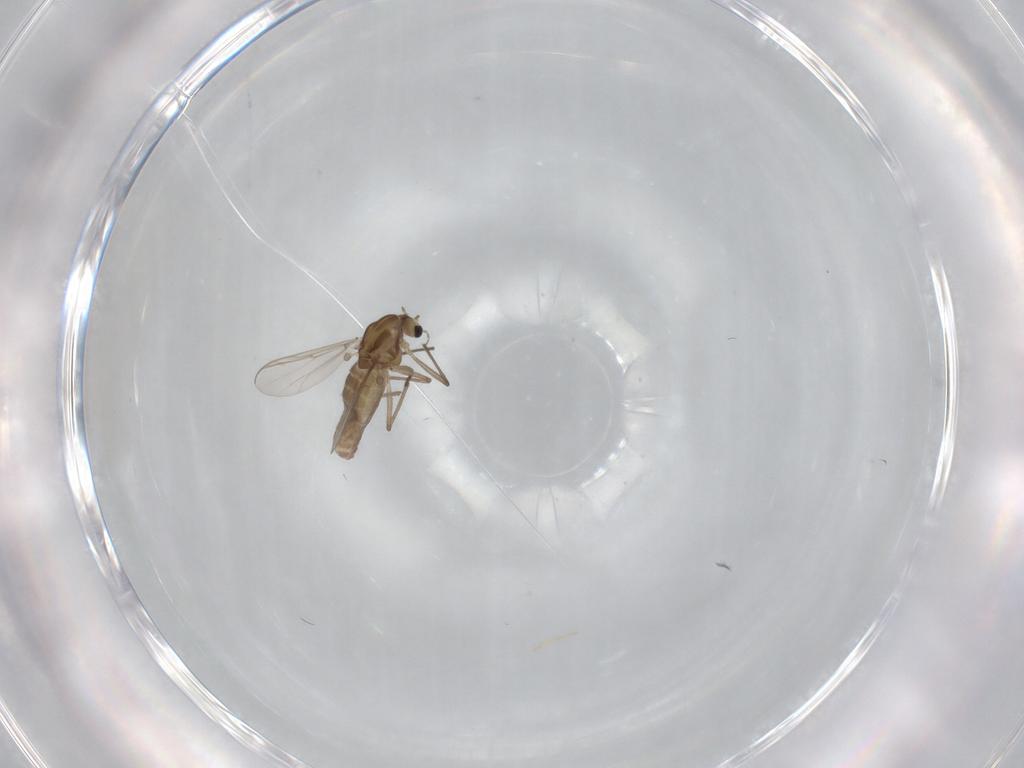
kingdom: Animalia
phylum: Arthropoda
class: Insecta
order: Diptera
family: Chironomidae
